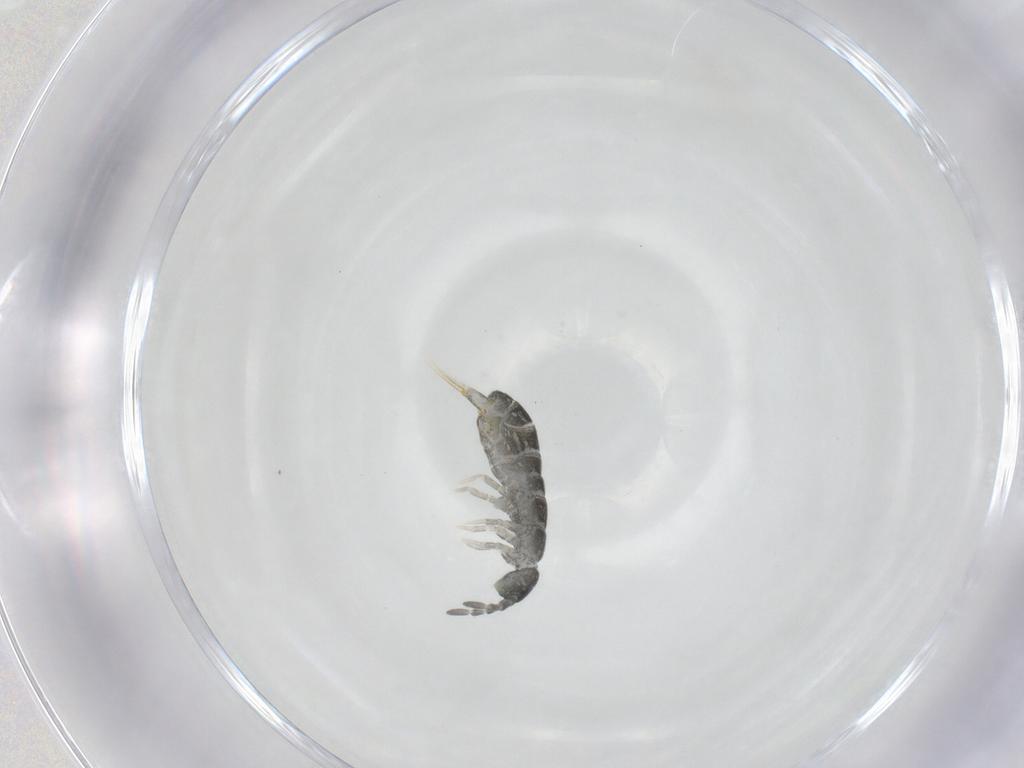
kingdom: Animalia
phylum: Arthropoda
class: Collembola
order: Entomobryomorpha
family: Isotomidae
